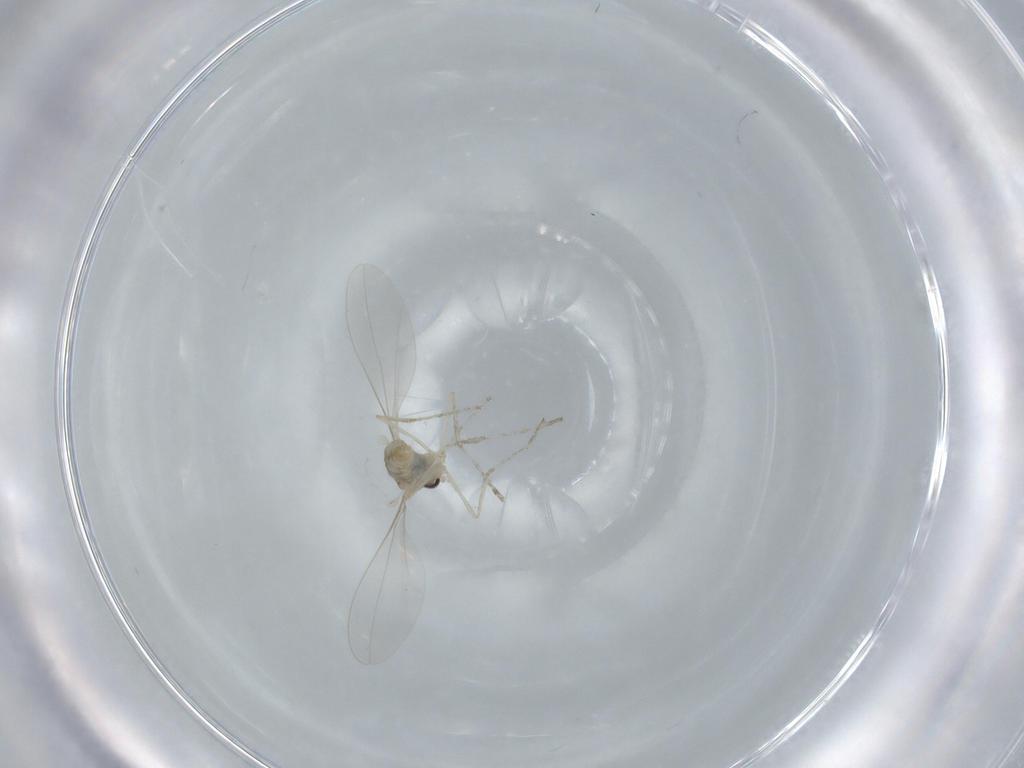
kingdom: Animalia
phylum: Arthropoda
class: Insecta
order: Diptera
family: Cecidomyiidae
